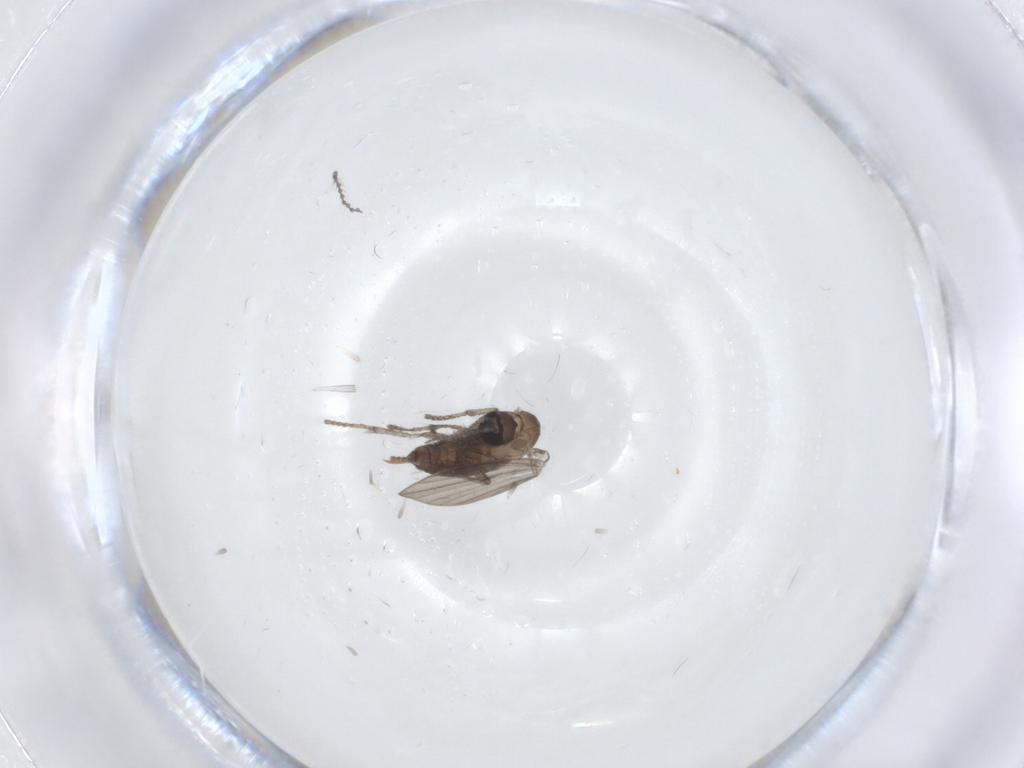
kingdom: Animalia
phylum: Arthropoda
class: Insecta
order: Diptera
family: Psychodidae
